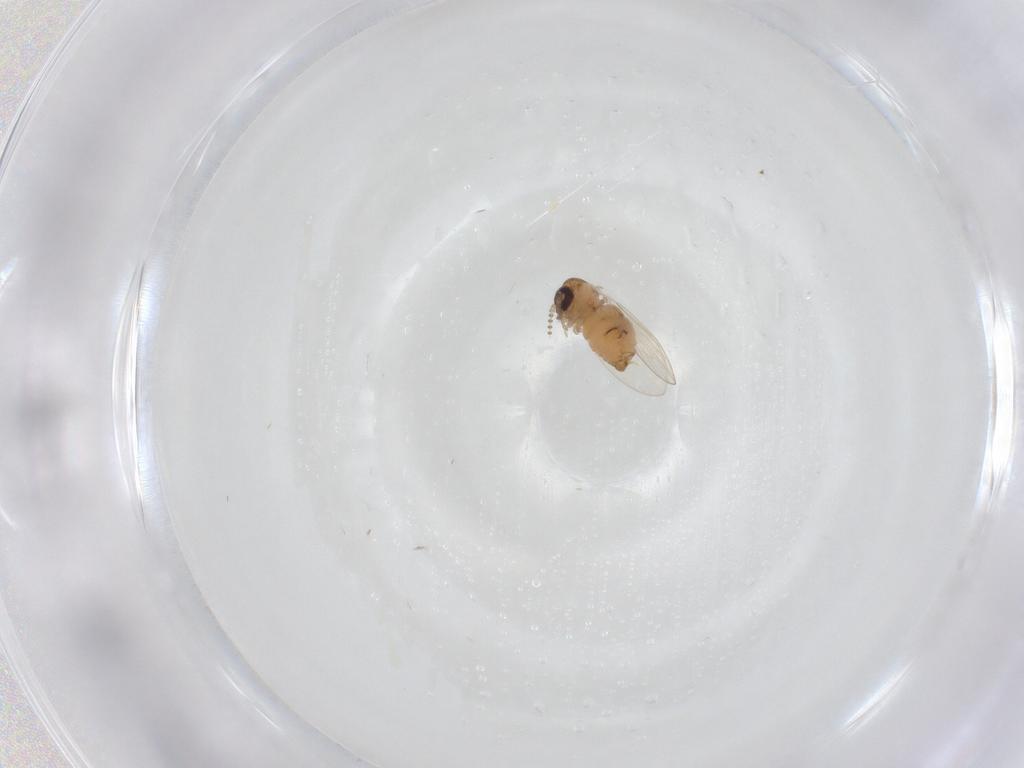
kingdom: Animalia
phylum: Arthropoda
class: Insecta
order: Diptera
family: Psychodidae
